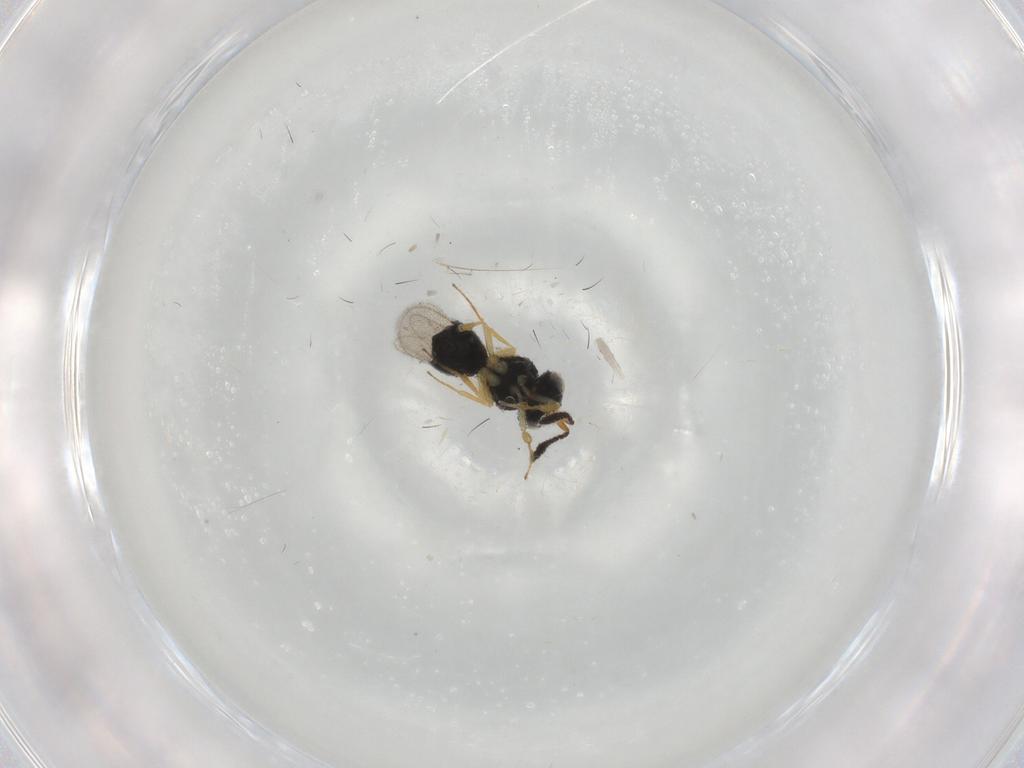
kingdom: Animalia
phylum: Arthropoda
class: Insecta
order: Hymenoptera
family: Scelionidae
